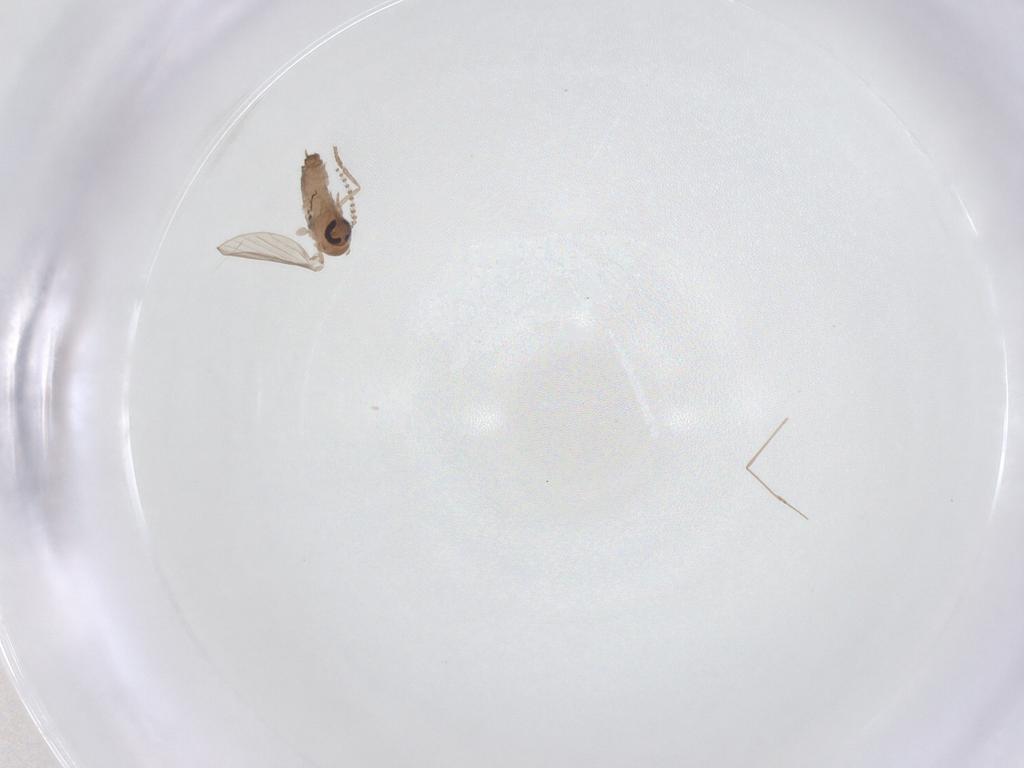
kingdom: Animalia
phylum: Arthropoda
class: Insecta
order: Diptera
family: Psychodidae
